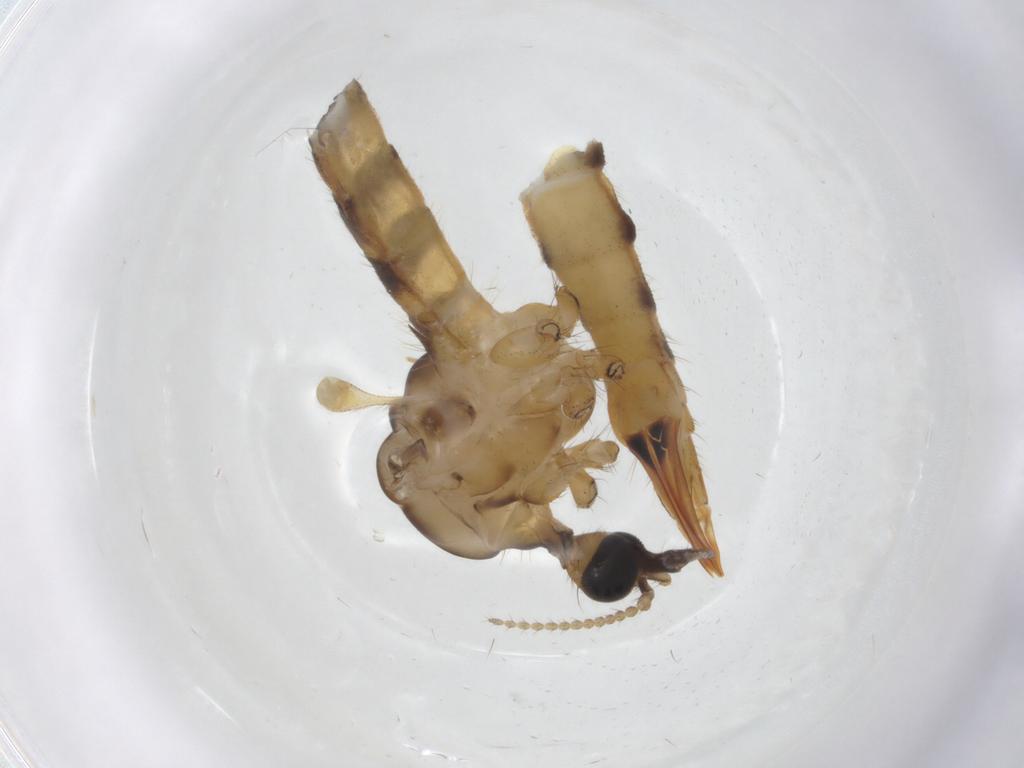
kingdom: Animalia
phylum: Arthropoda
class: Insecta
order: Diptera
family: Limoniidae
